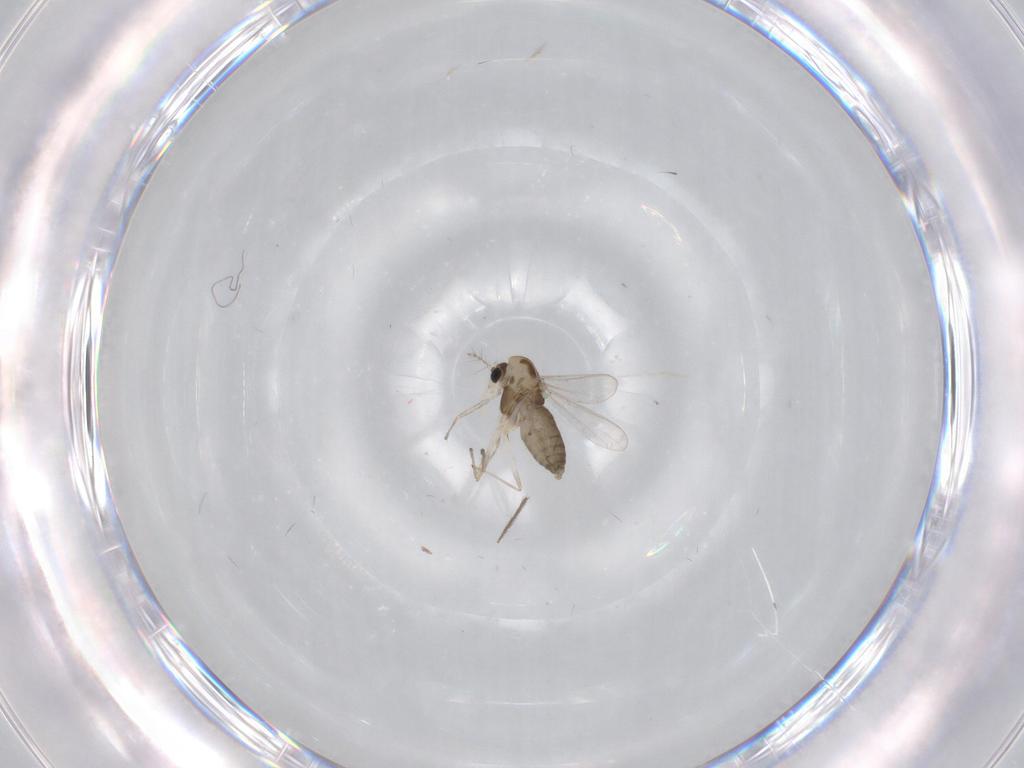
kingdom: Animalia
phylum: Arthropoda
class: Insecta
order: Diptera
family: Chironomidae
